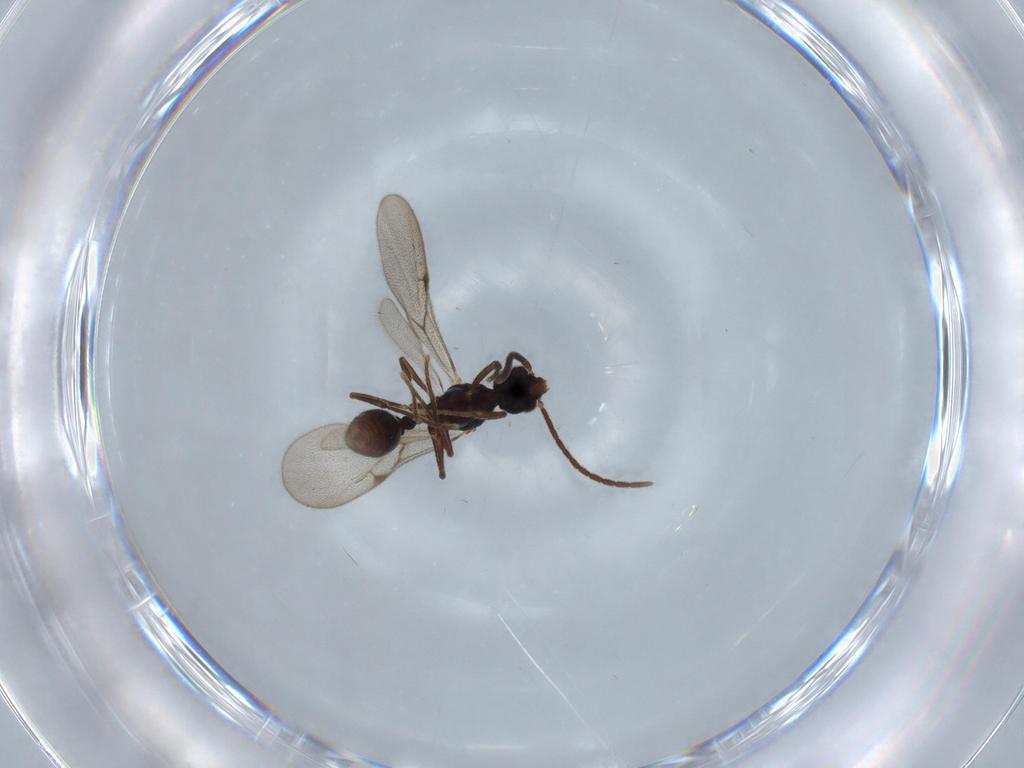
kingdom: Animalia
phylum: Arthropoda
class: Insecta
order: Hymenoptera
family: Formicidae
